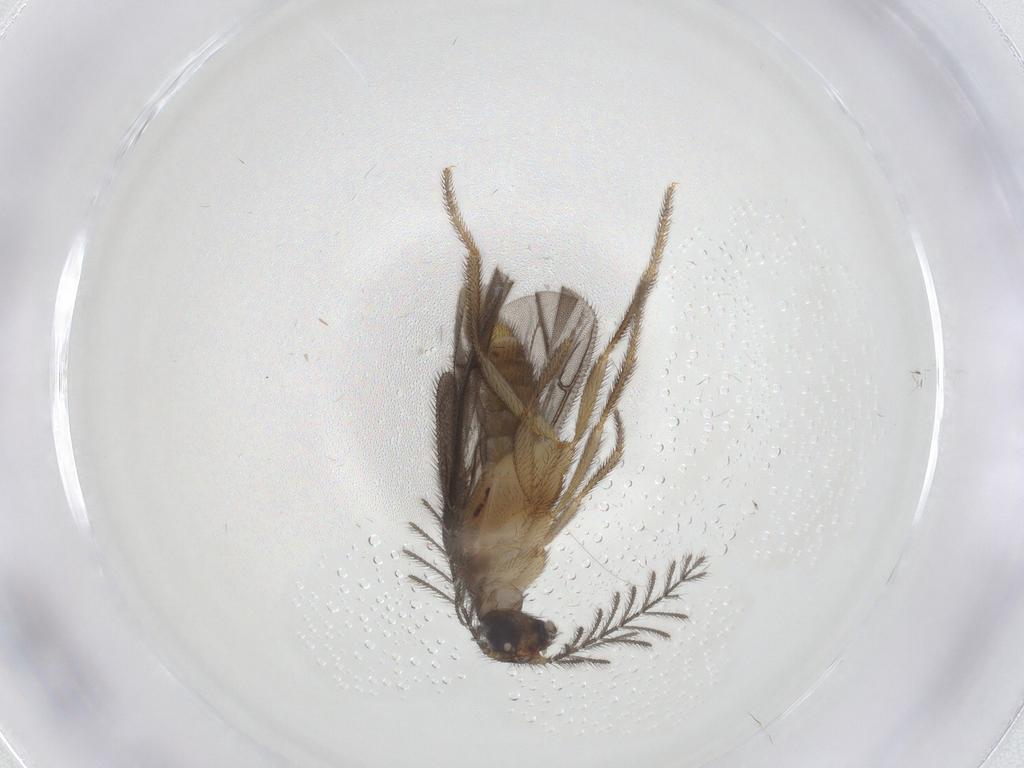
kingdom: Animalia
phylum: Arthropoda
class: Insecta
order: Coleoptera
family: Phengodidae
